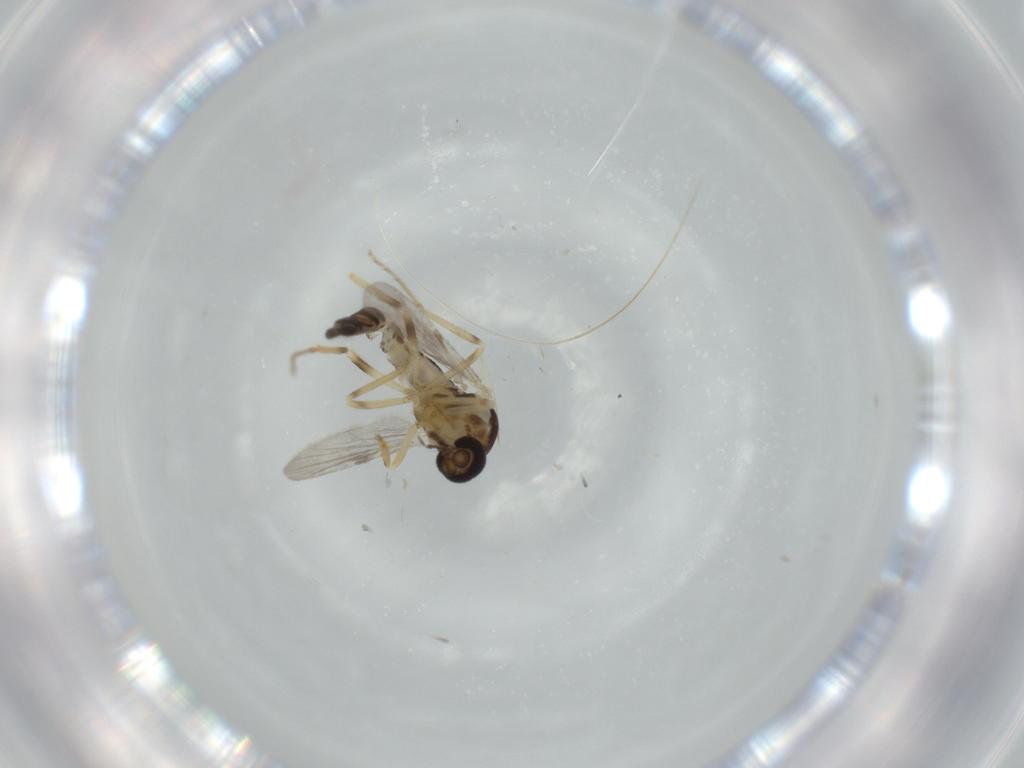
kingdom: Animalia
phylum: Arthropoda
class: Insecta
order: Diptera
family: Ceratopogonidae
